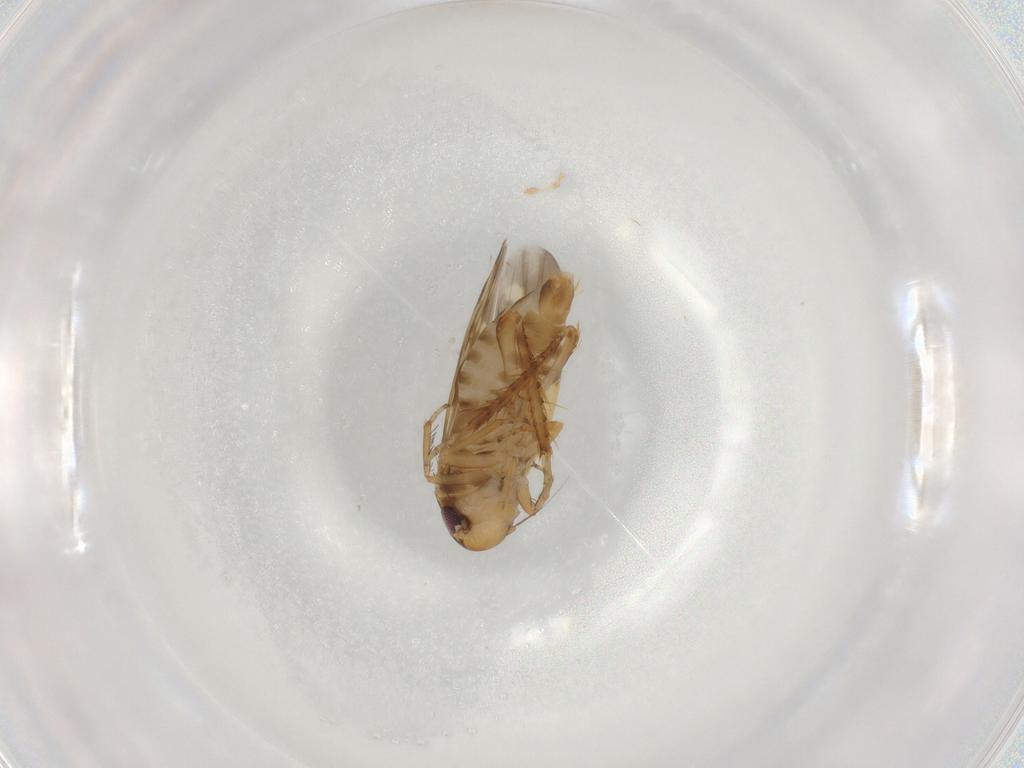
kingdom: Animalia
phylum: Arthropoda
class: Insecta
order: Hemiptera
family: Cicadellidae
